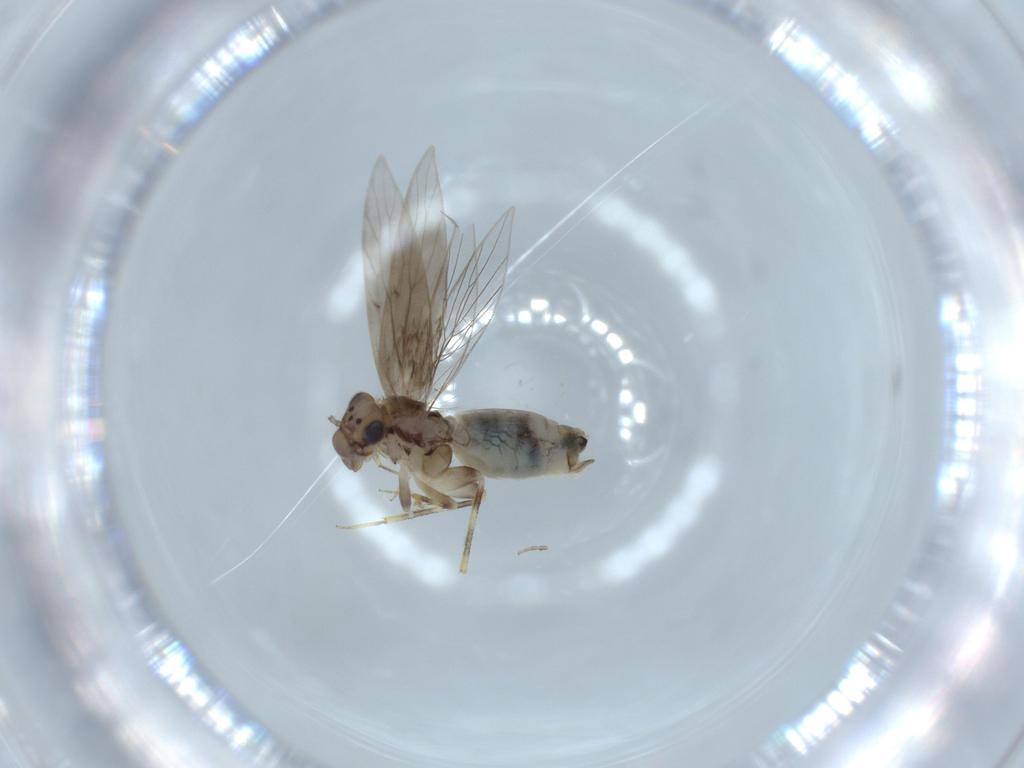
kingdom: Animalia
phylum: Arthropoda
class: Insecta
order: Psocodea
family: Lepidopsocidae
